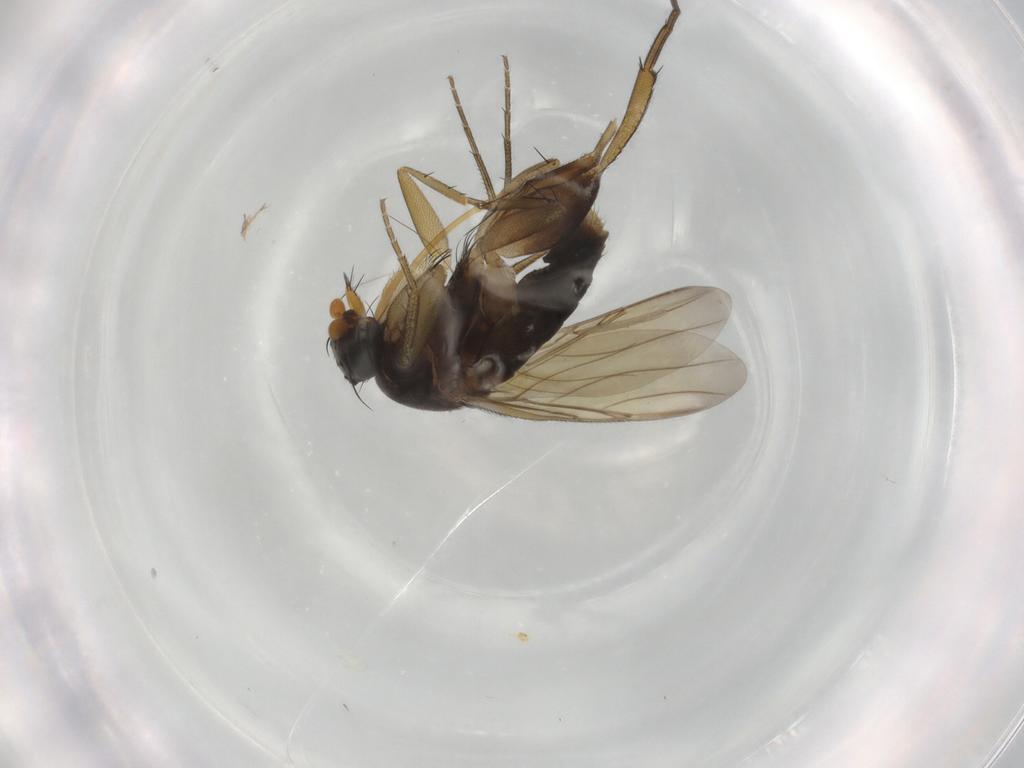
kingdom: Animalia
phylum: Arthropoda
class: Insecta
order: Diptera
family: Phoridae
